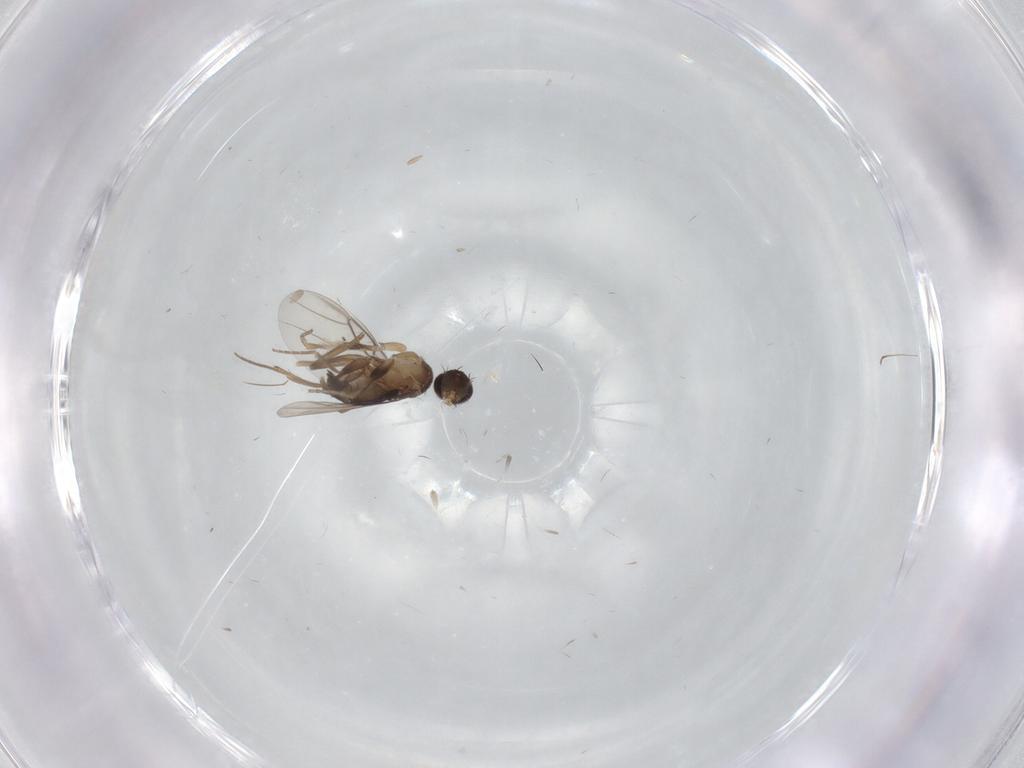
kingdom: Animalia
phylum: Arthropoda
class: Insecta
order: Diptera
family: Phoridae
